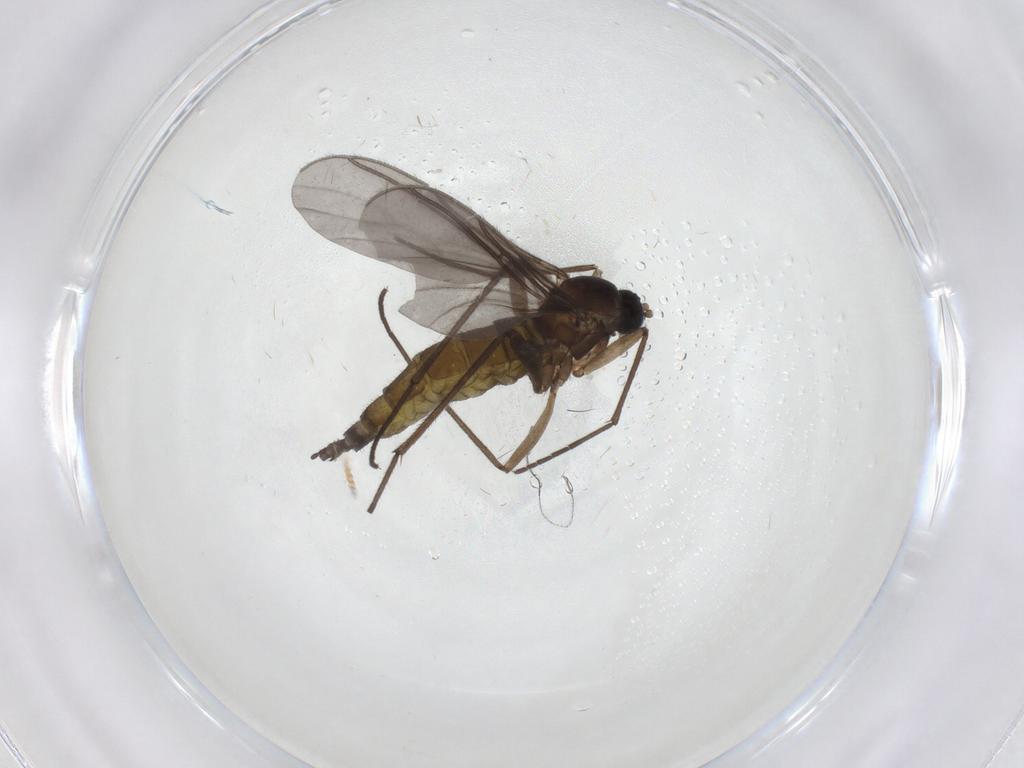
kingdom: Animalia
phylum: Arthropoda
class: Insecta
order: Diptera
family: Sciaridae
